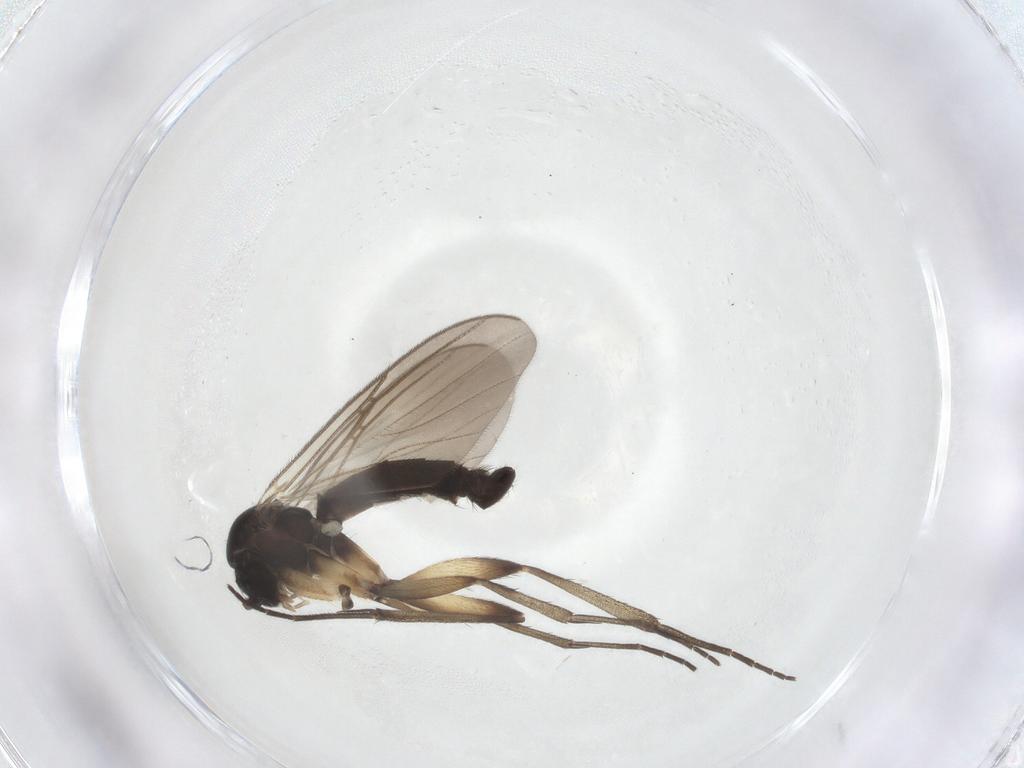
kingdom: Animalia
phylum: Arthropoda
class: Insecta
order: Diptera
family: Mycetophilidae
